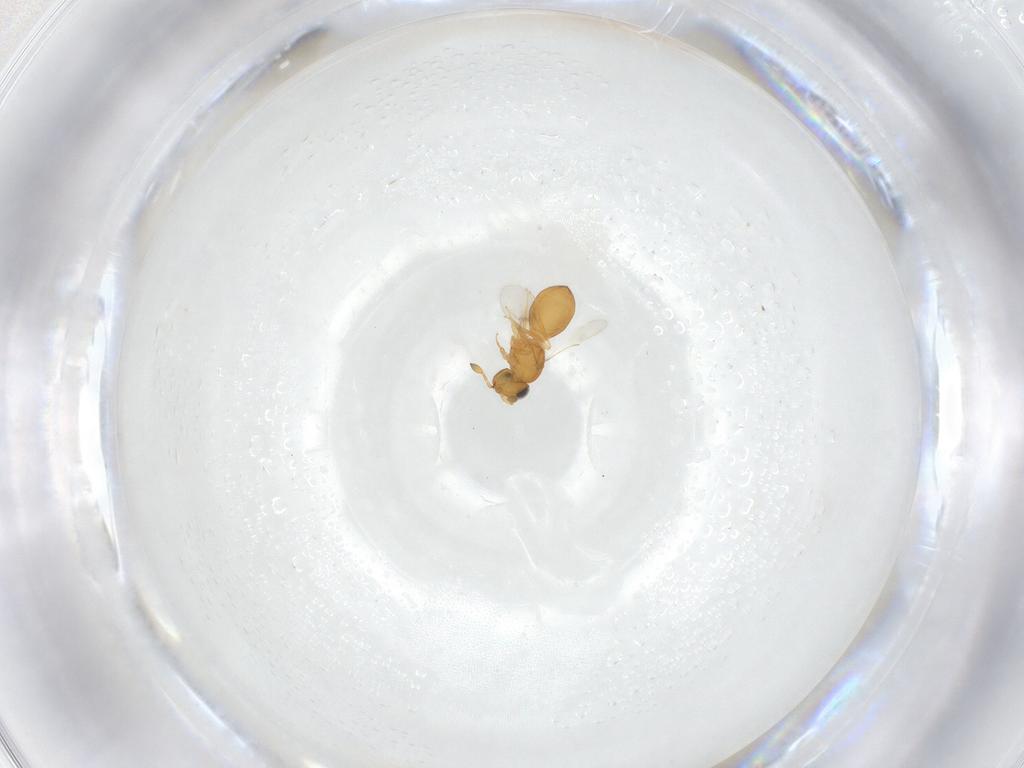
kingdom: Animalia
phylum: Arthropoda
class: Insecta
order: Hymenoptera
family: Scelionidae
